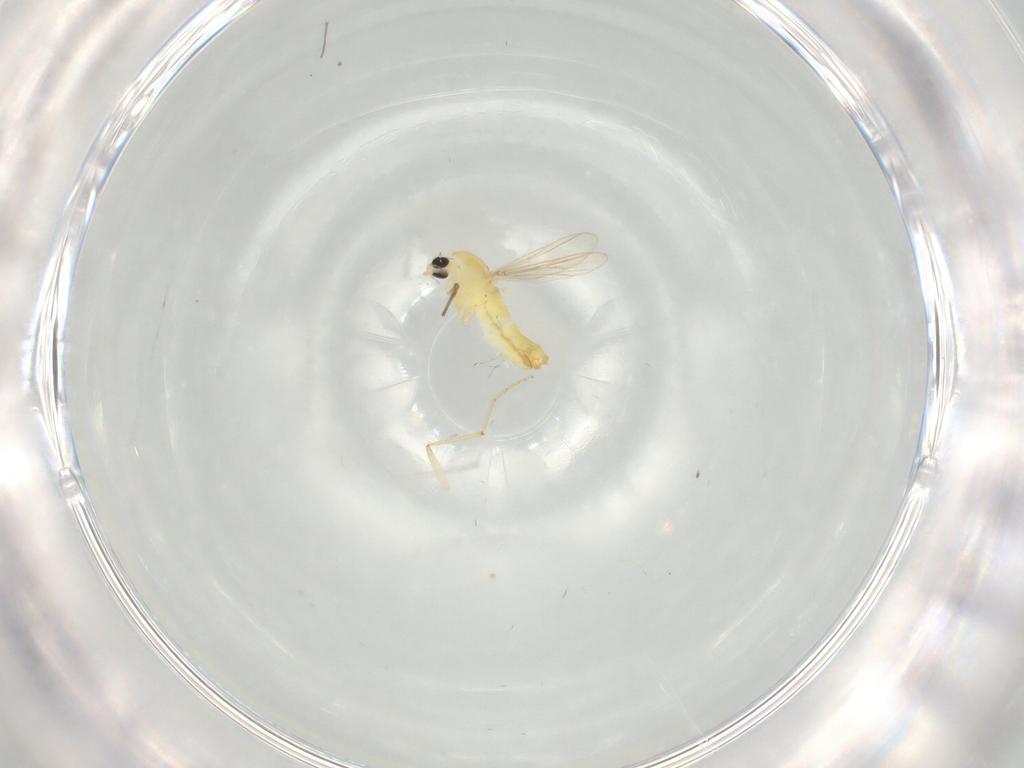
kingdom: Animalia
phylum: Arthropoda
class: Insecta
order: Diptera
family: Chironomidae
